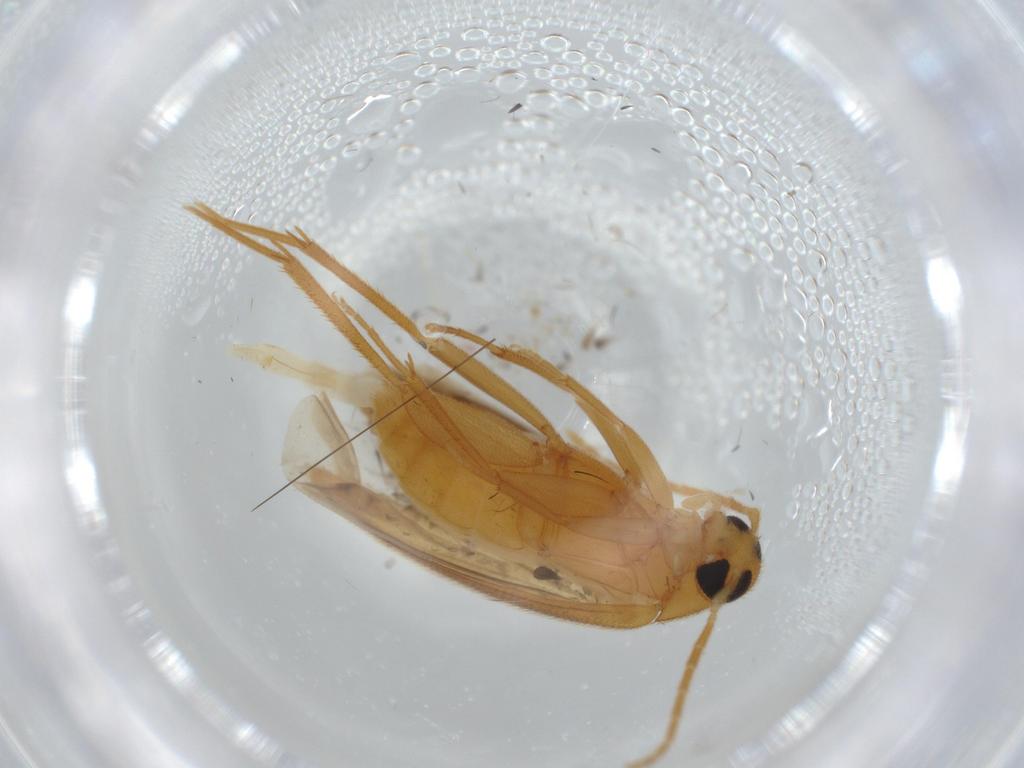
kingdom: Animalia
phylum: Arthropoda
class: Insecta
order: Coleoptera
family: Scraptiidae
